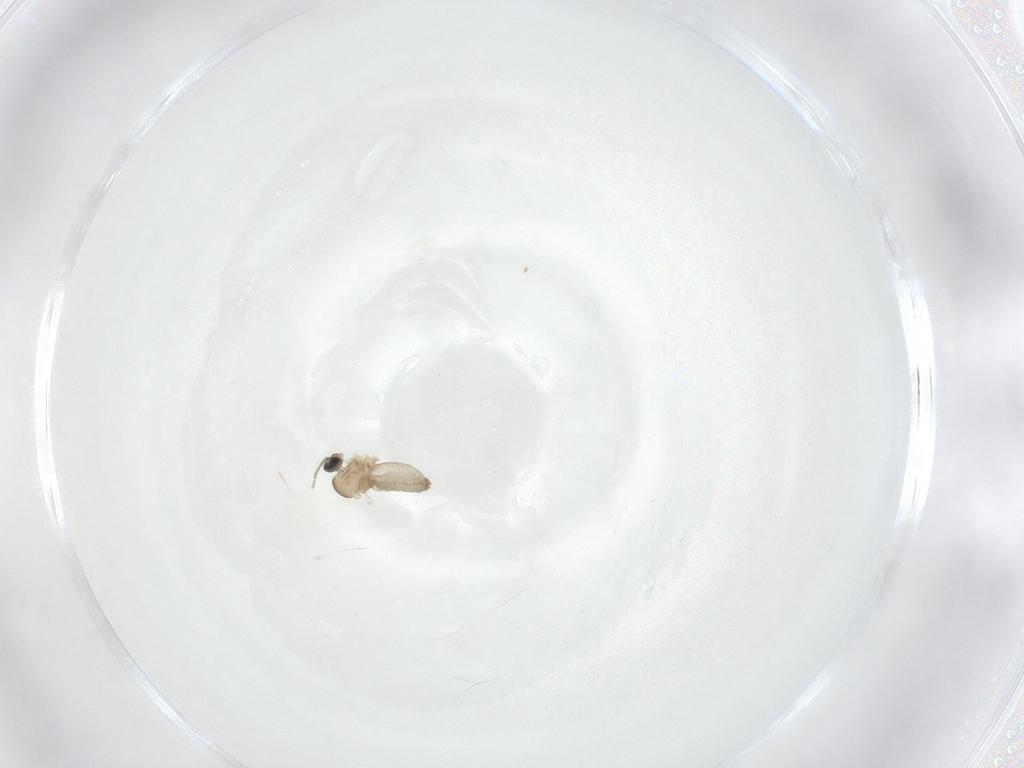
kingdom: Animalia
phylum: Arthropoda
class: Insecta
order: Diptera
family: Cecidomyiidae
